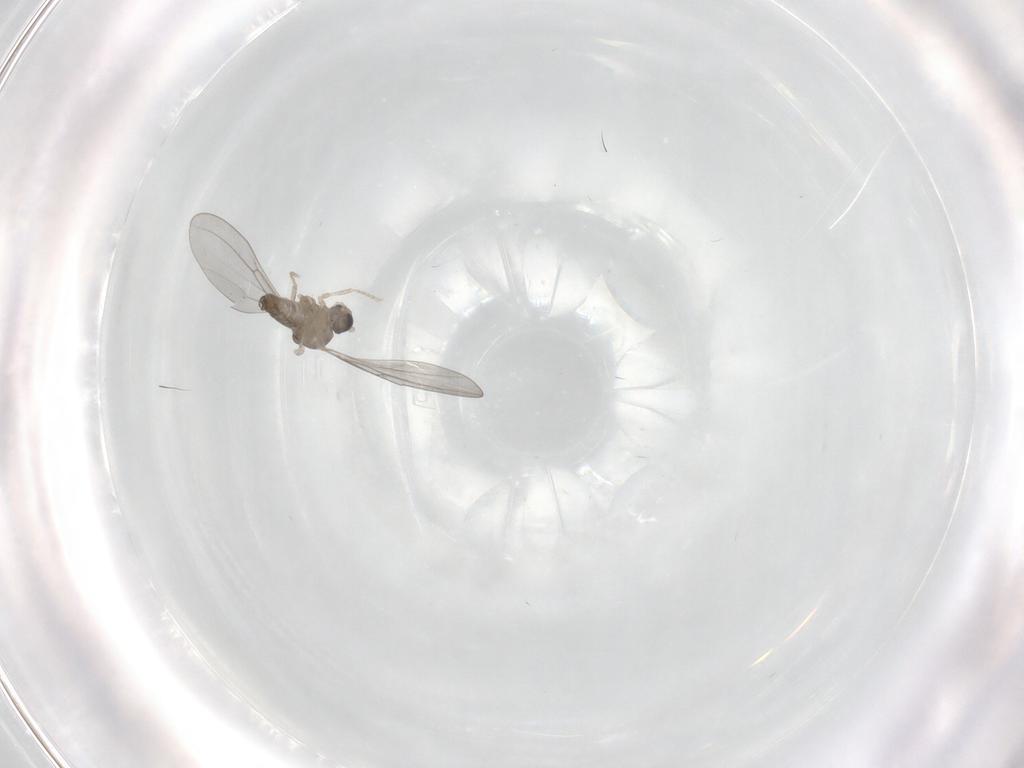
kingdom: Animalia
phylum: Arthropoda
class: Insecta
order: Diptera
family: Cecidomyiidae
